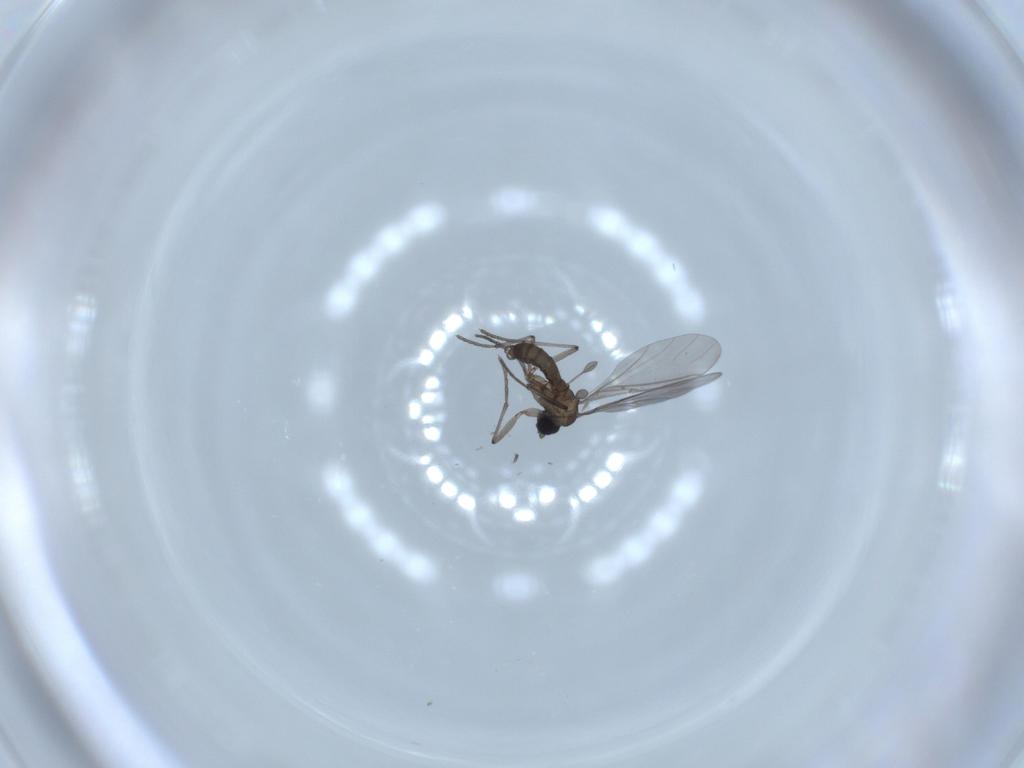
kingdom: Animalia
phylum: Arthropoda
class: Insecta
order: Diptera
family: Sciaridae
